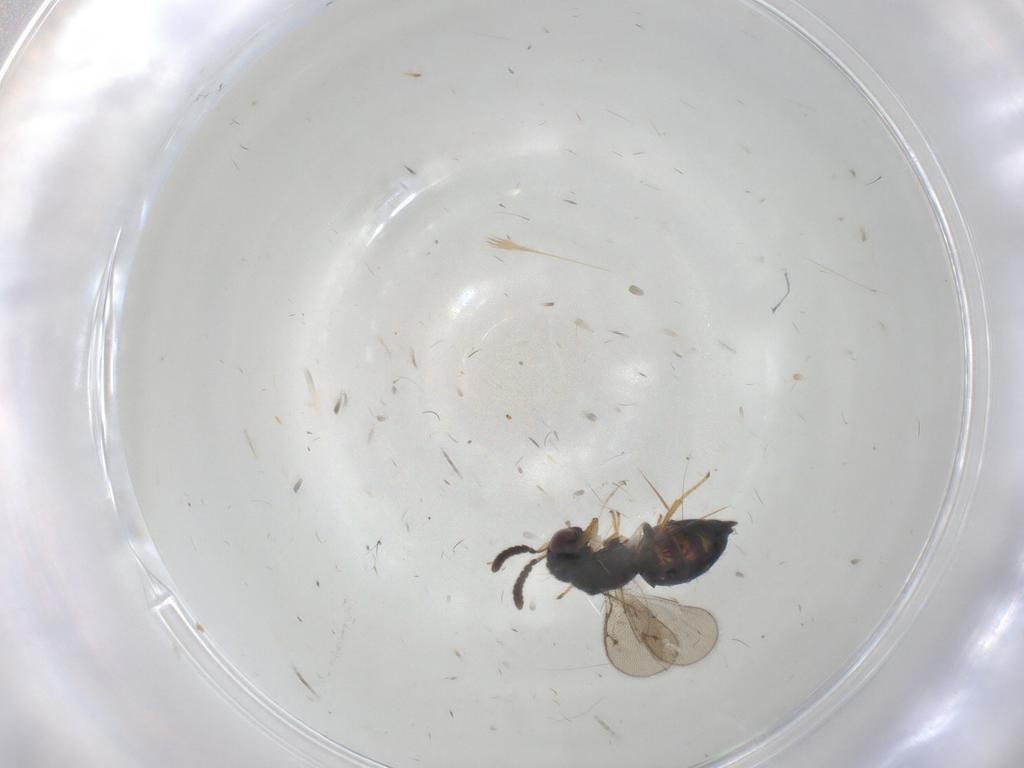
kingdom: Animalia
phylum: Arthropoda
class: Insecta
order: Hymenoptera
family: Pirenidae
